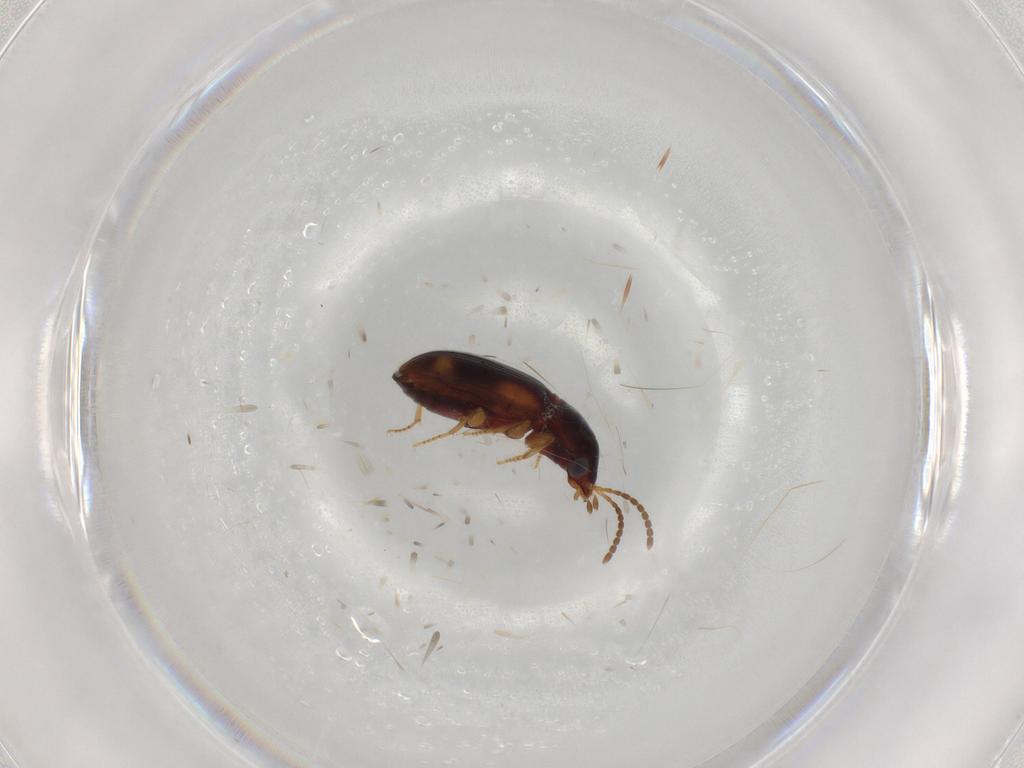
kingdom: Animalia
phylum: Arthropoda
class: Insecta
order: Coleoptera
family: Carabidae
